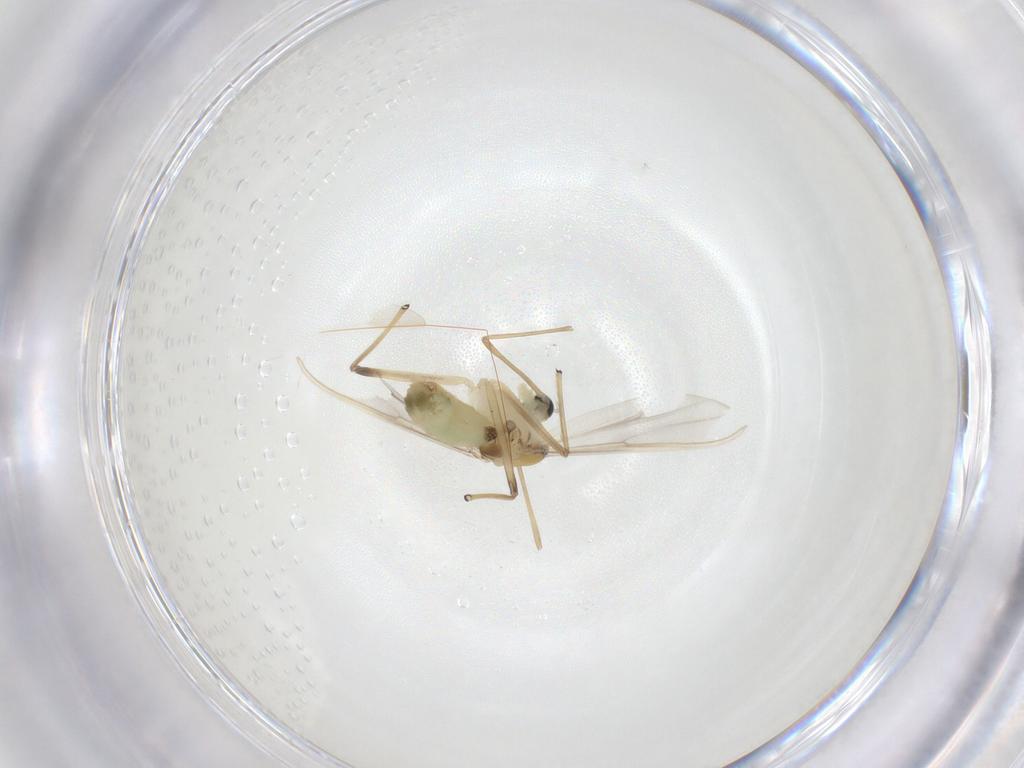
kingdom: Animalia
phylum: Arthropoda
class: Insecta
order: Diptera
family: Chironomidae
